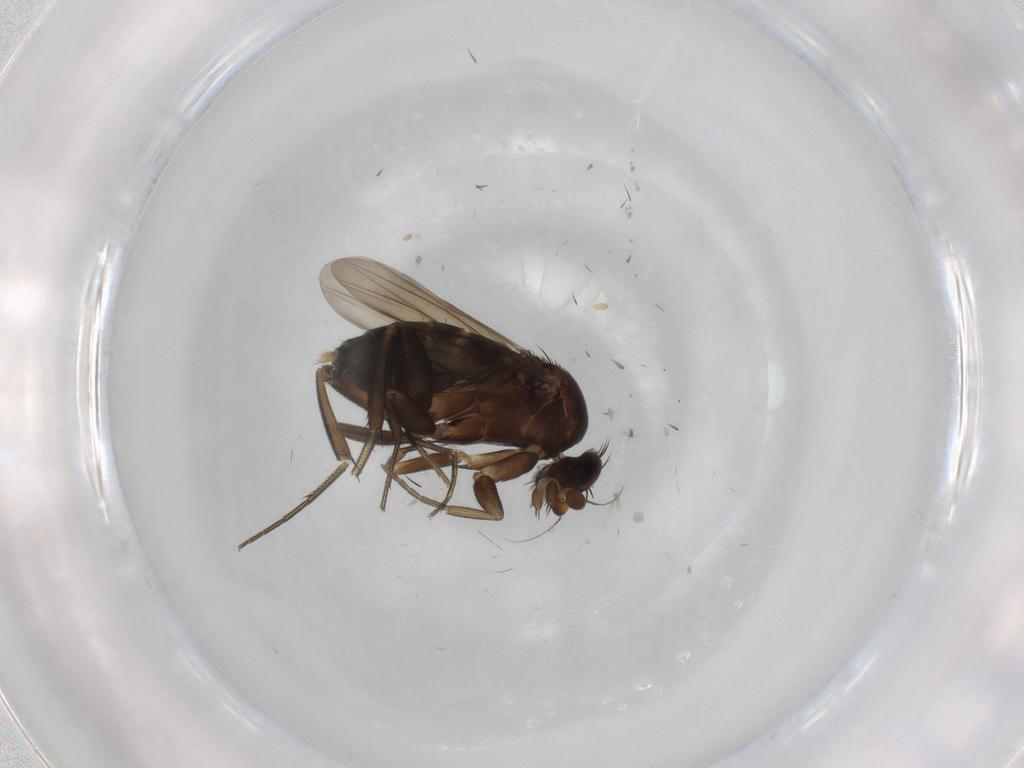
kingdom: Animalia
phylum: Arthropoda
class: Insecta
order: Diptera
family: Phoridae
